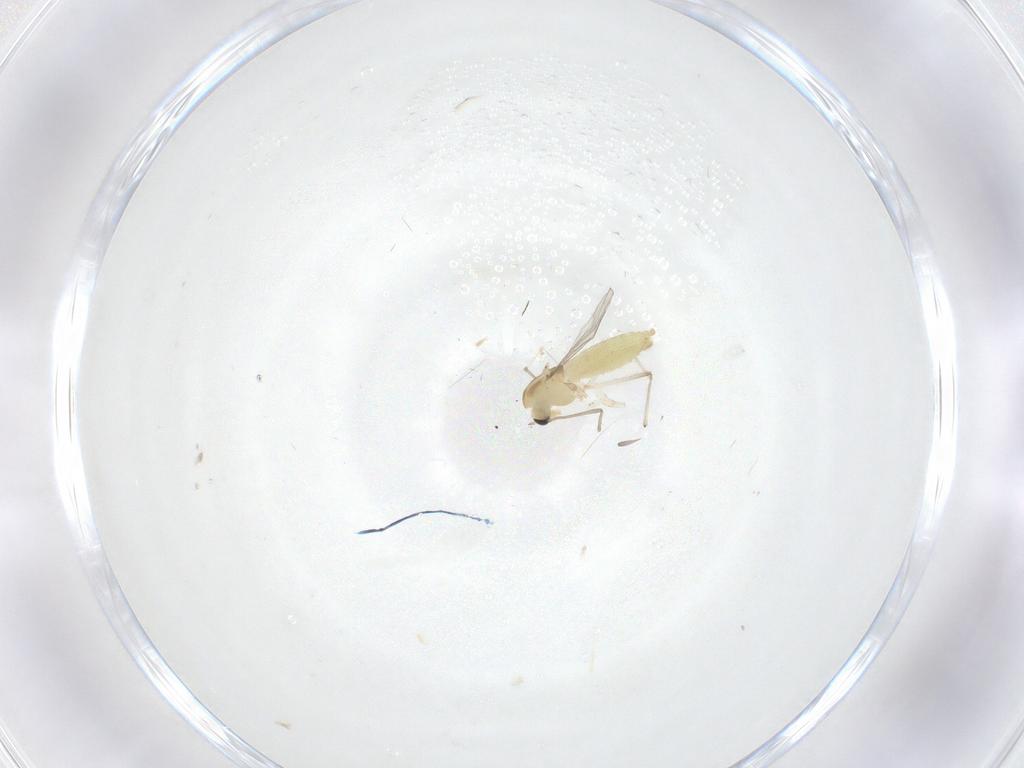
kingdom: Animalia
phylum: Arthropoda
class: Insecta
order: Diptera
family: Chironomidae
